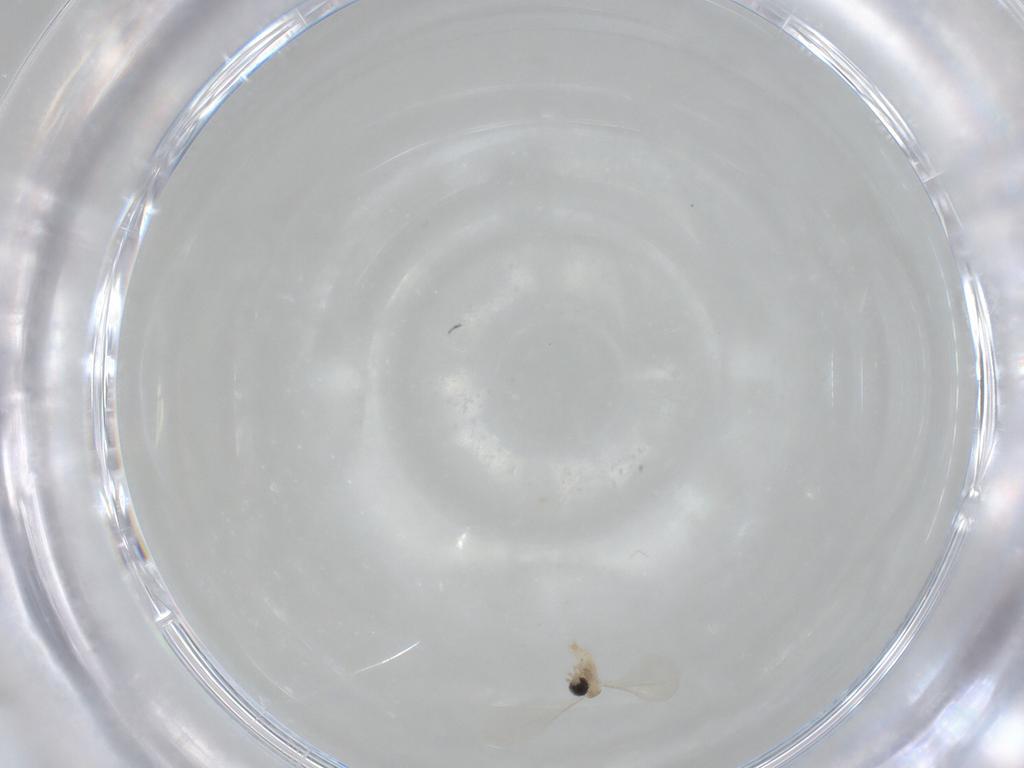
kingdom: Animalia
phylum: Arthropoda
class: Insecta
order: Diptera
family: Cecidomyiidae
